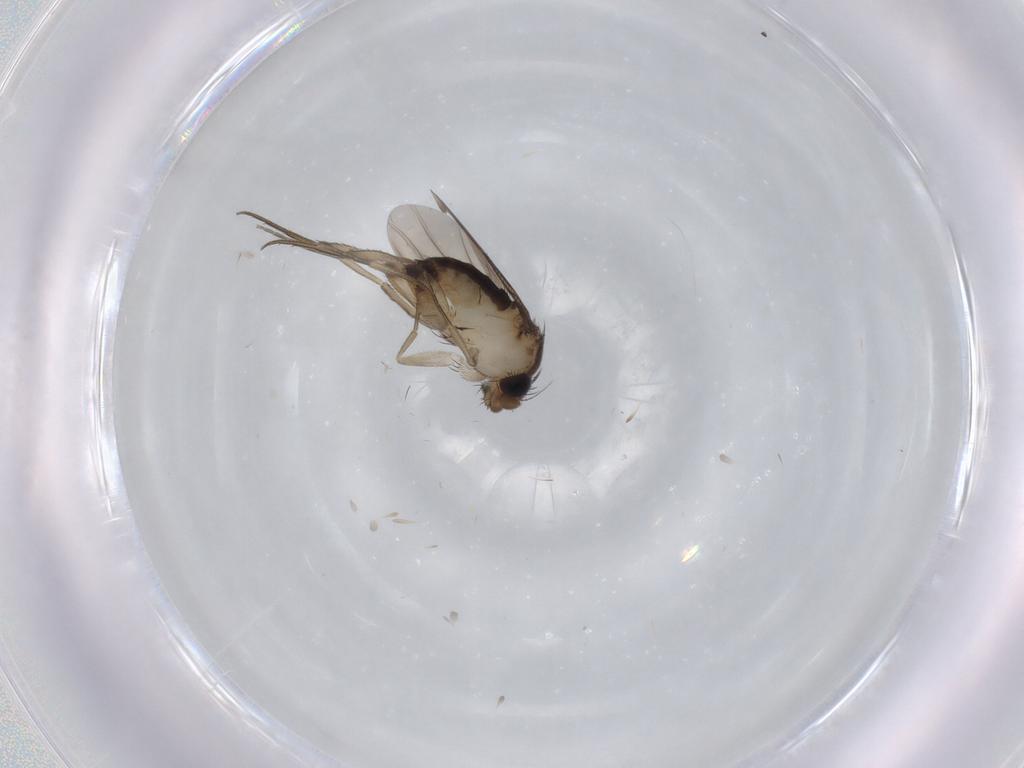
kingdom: Animalia
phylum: Arthropoda
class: Insecta
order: Diptera
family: Phoridae
